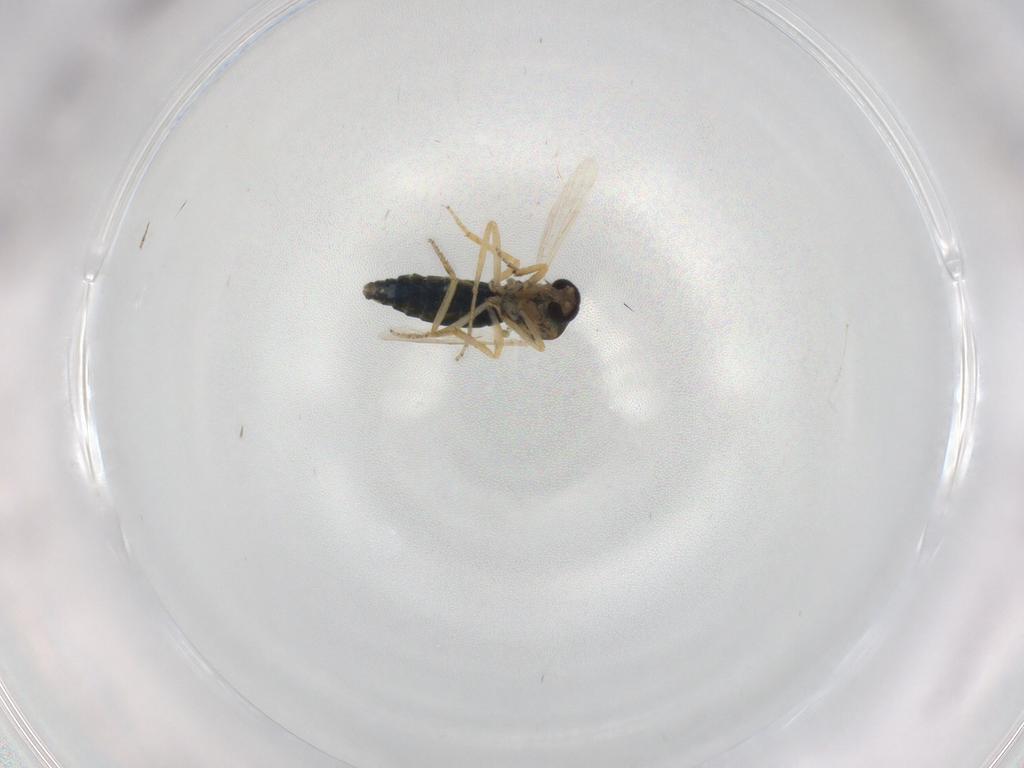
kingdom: Animalia
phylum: Arthropoda
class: Insecta
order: Diptera
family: Ceratopogonidae
